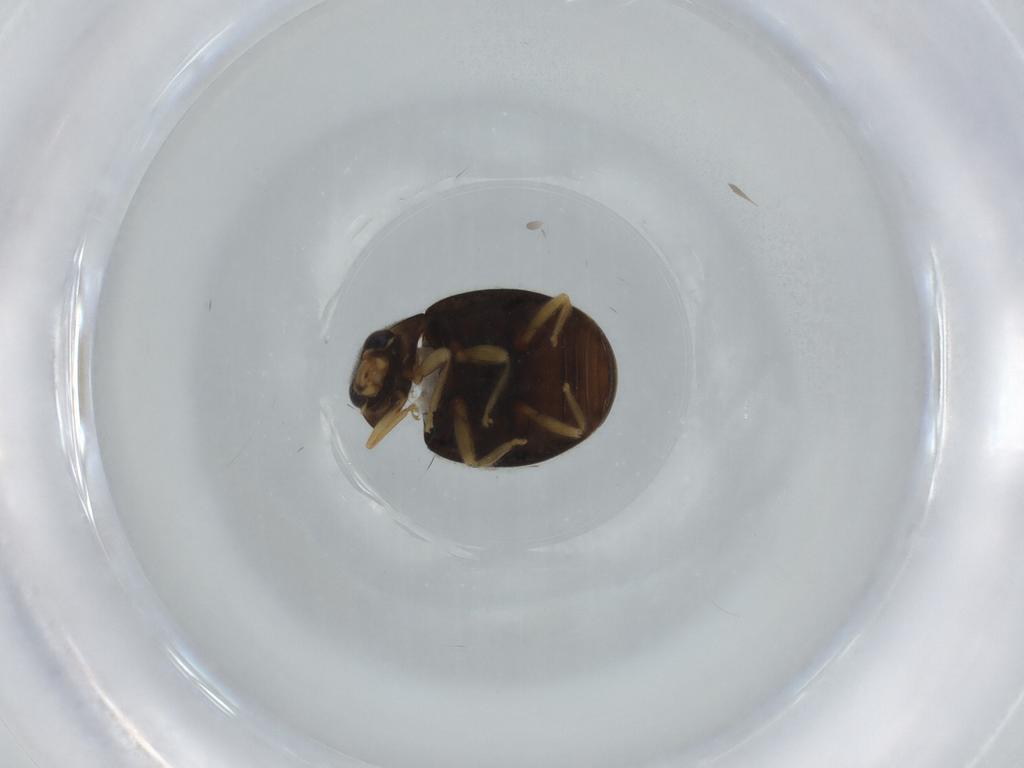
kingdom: Animalia
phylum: Arthropoda
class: Insecta
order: Coleoptera
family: Coccinellidae
